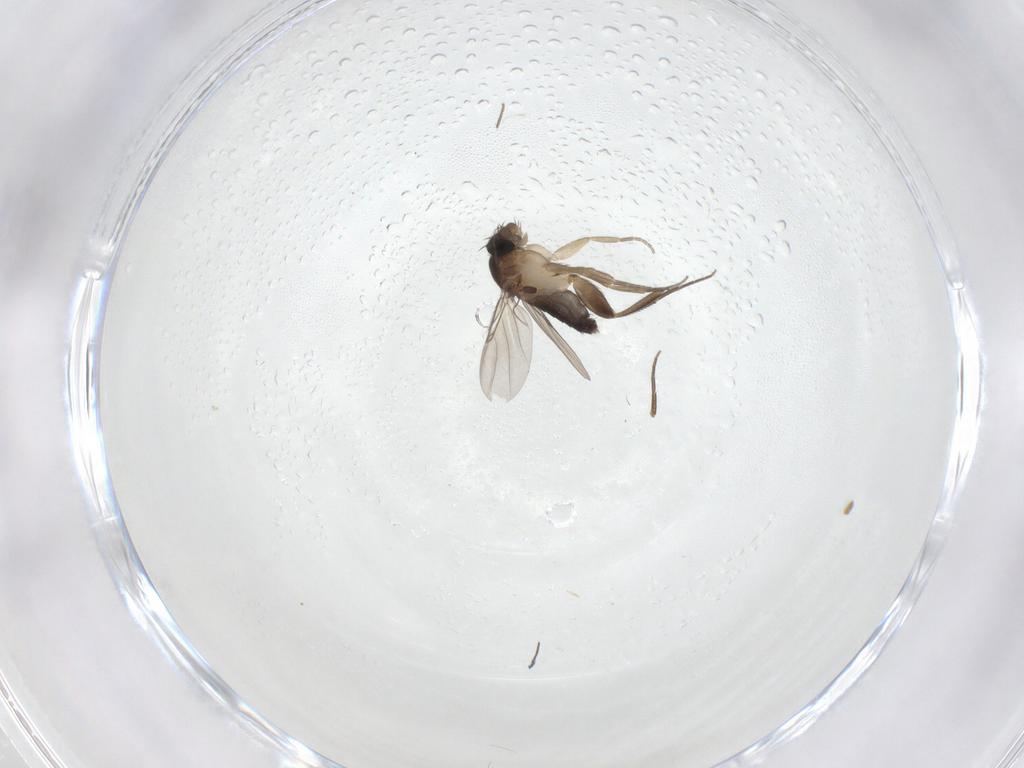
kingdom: Animalia
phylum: Arthropoda
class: Insecta
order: Diptera
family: Phoridae
